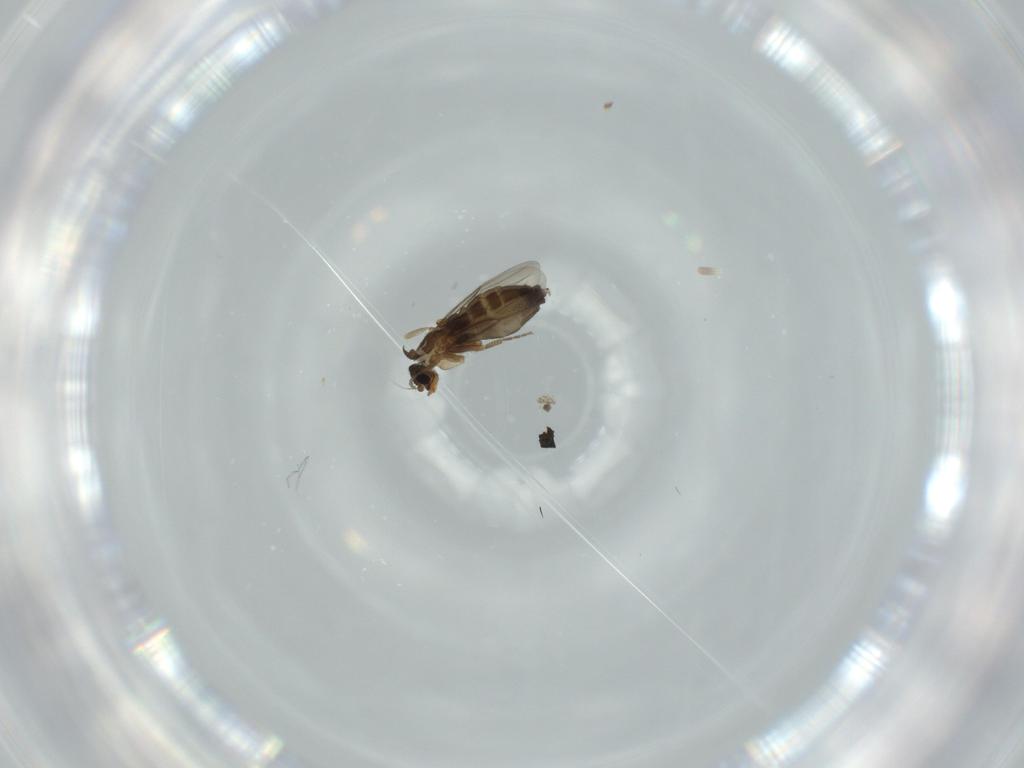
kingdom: Animalia
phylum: Arthropoda
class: Insecta
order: Diptera
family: Phoridae
